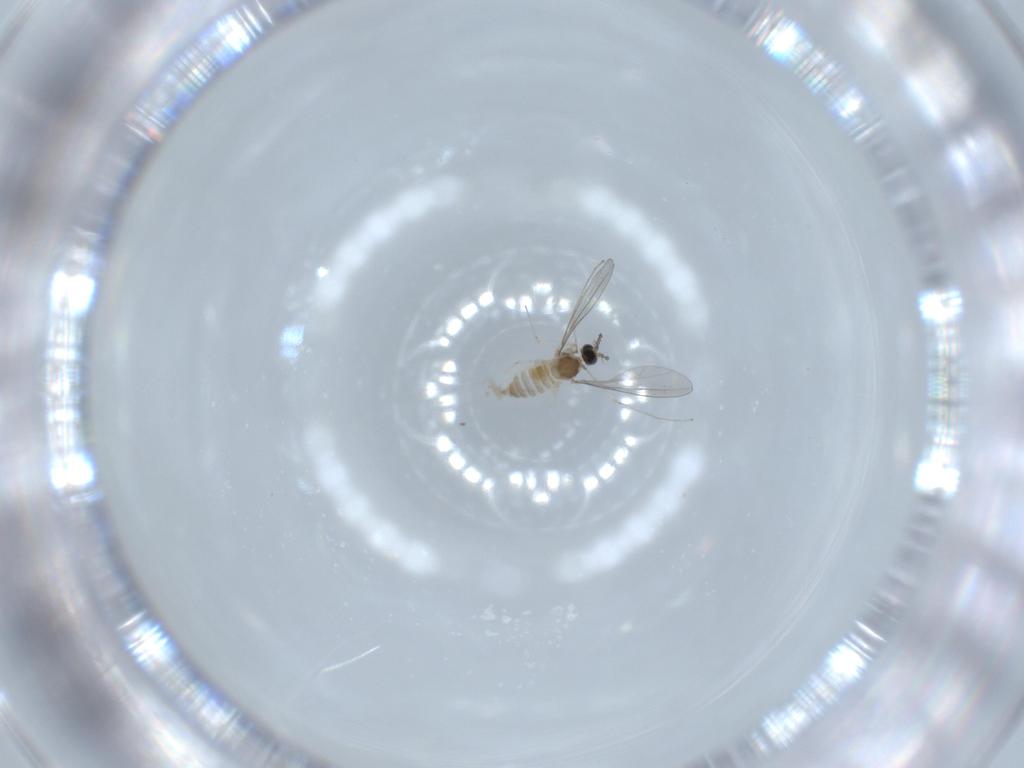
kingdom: Animalia
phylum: Arthropoda
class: Insecta
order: Diptera
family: Cecidomyiidae
